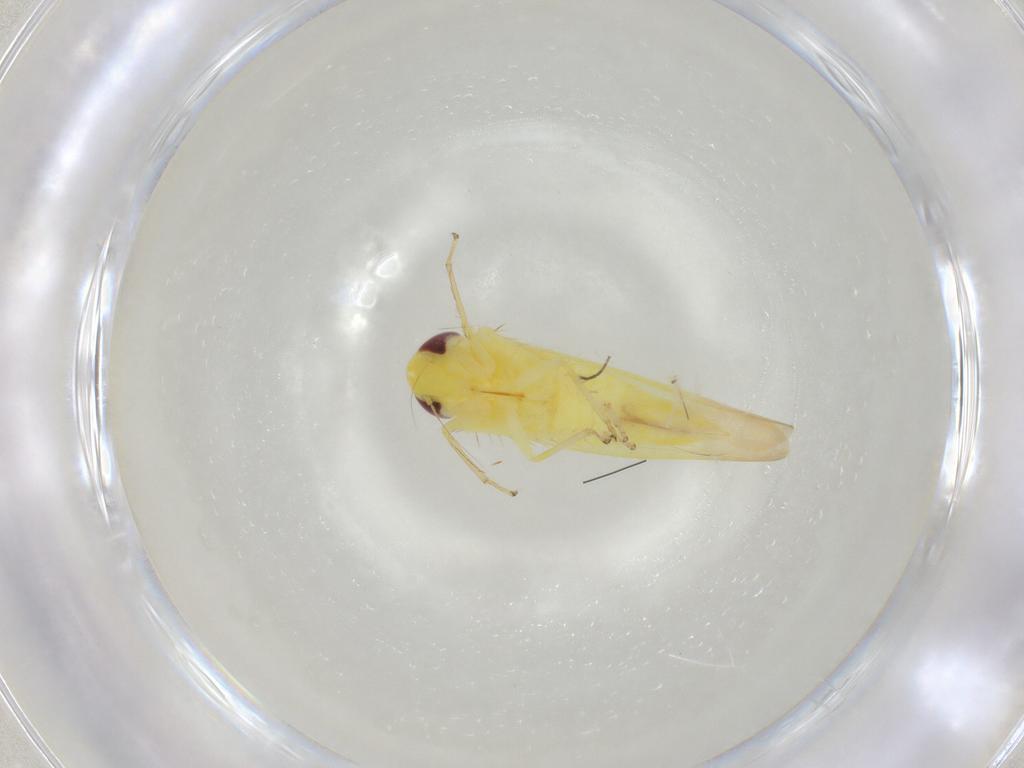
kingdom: Animalia
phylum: Arthropoda
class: Insecta
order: Hemiptera
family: Cicadellidae
